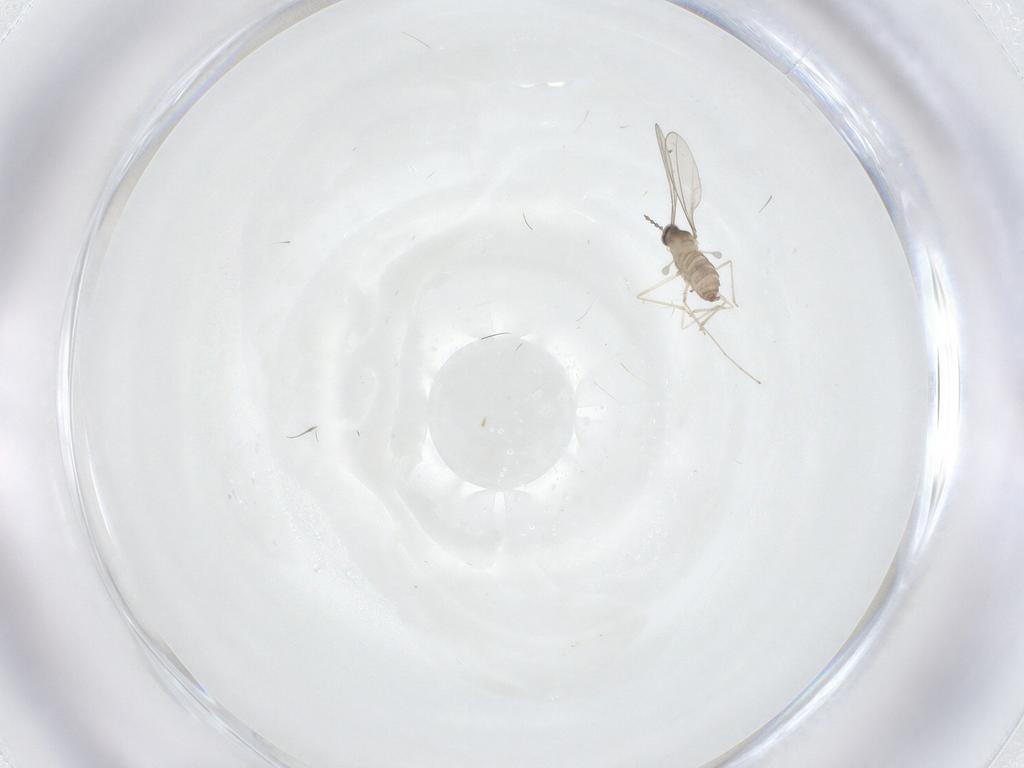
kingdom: Animalia
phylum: Arthropoda
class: Insecta
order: Diptera
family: Cecidomyiidae
